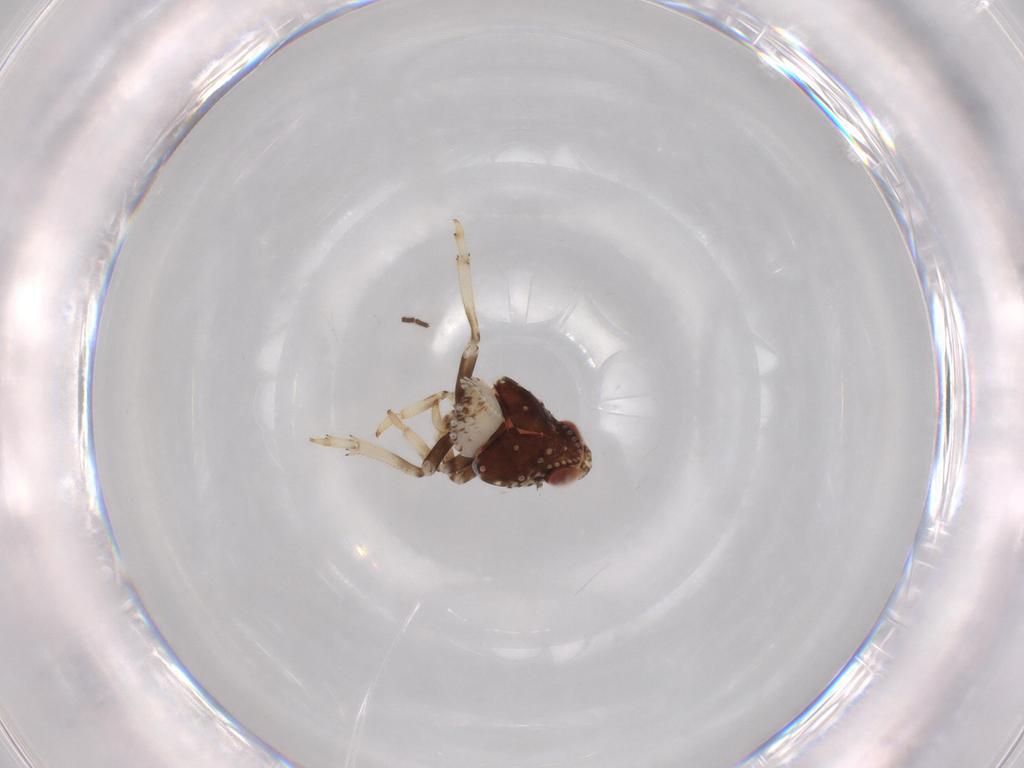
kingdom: Animalia
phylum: Arthropoda
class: Insecta
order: Hemiptera
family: Issidae
